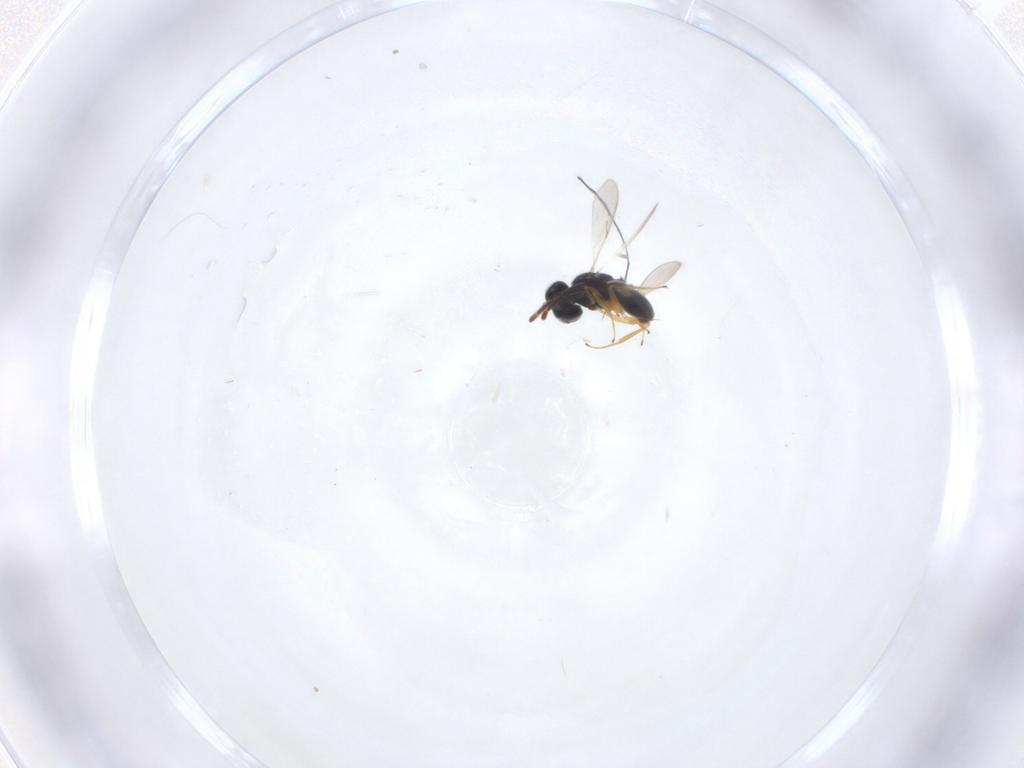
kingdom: Animalia
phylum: Arthropoda
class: Insecta
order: Hymenoptera
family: Scelionidae
